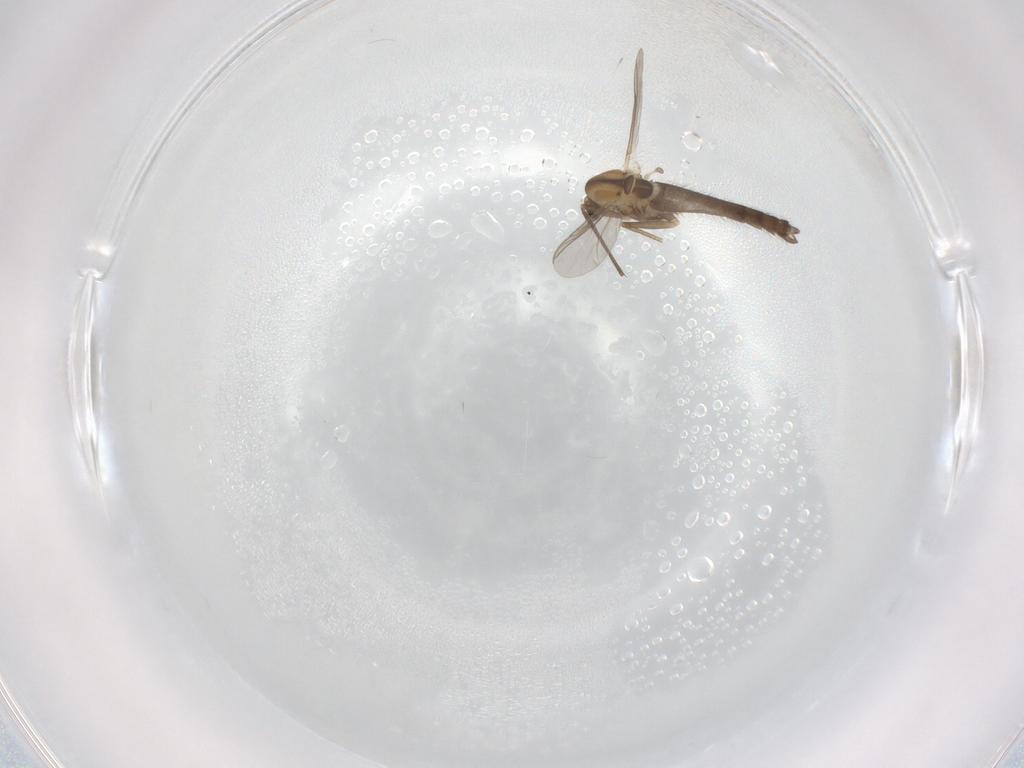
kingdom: Animalia
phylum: Arthropoda
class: Insecta
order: Diptera
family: Chironomidae
